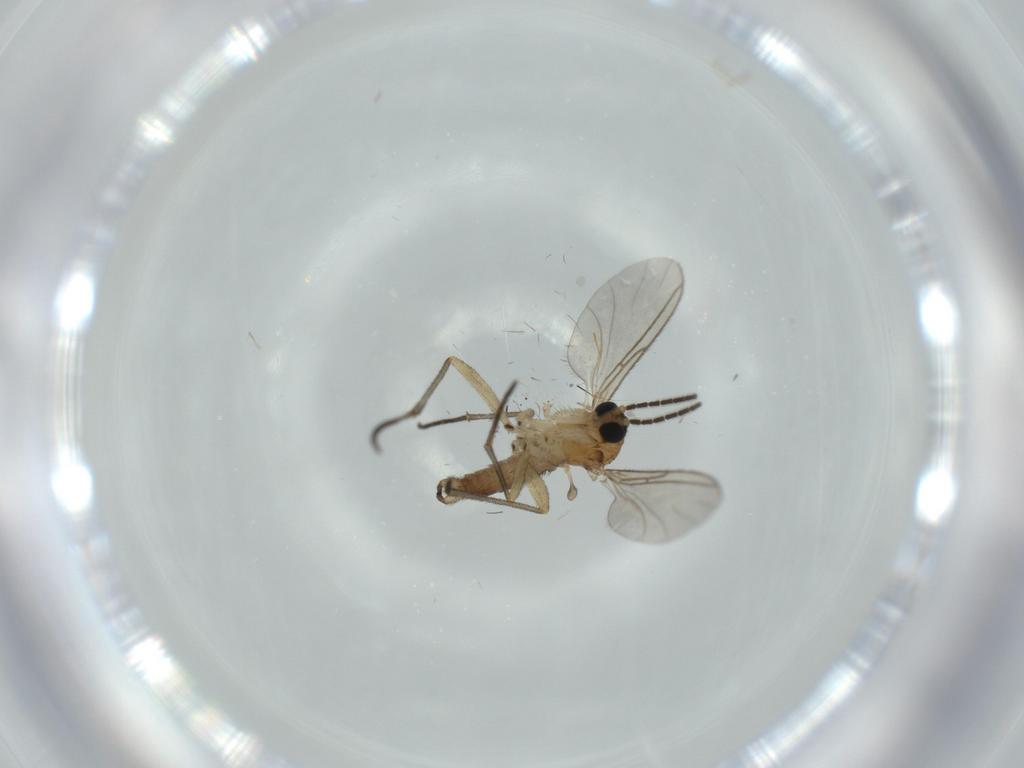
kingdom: Animalia
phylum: Arthropoda
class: Insecta
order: Diptera
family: Sciaridae
